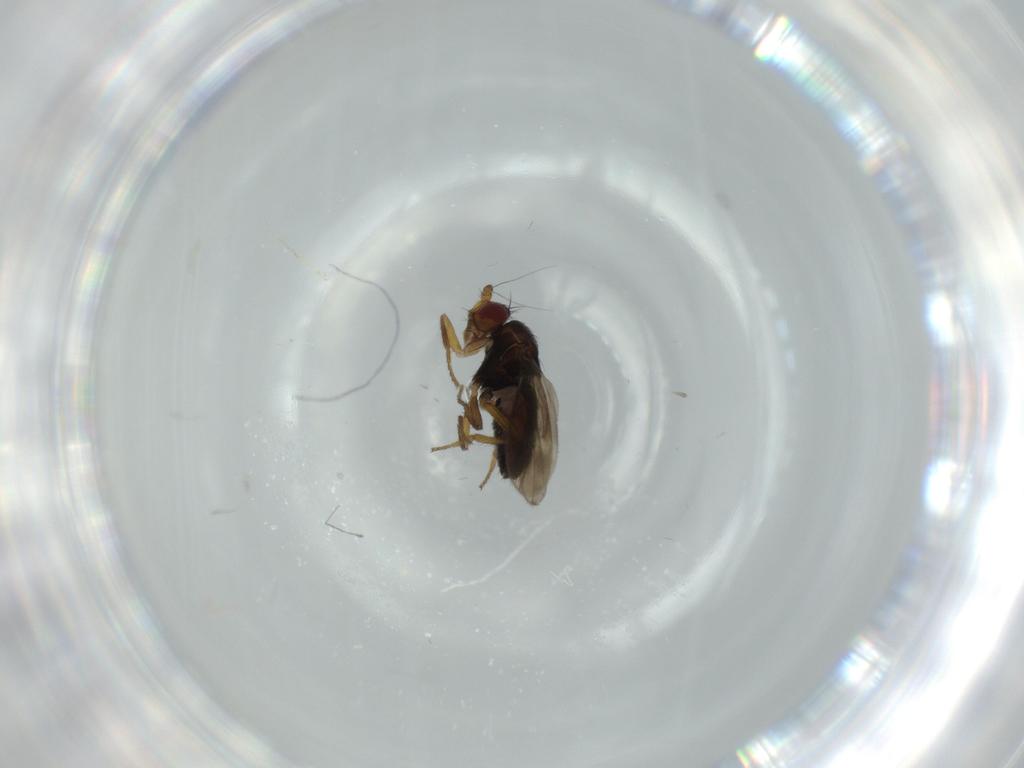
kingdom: Animalia
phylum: Arthropoda
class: Insecta
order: Diptera
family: Sphaeroceridae
